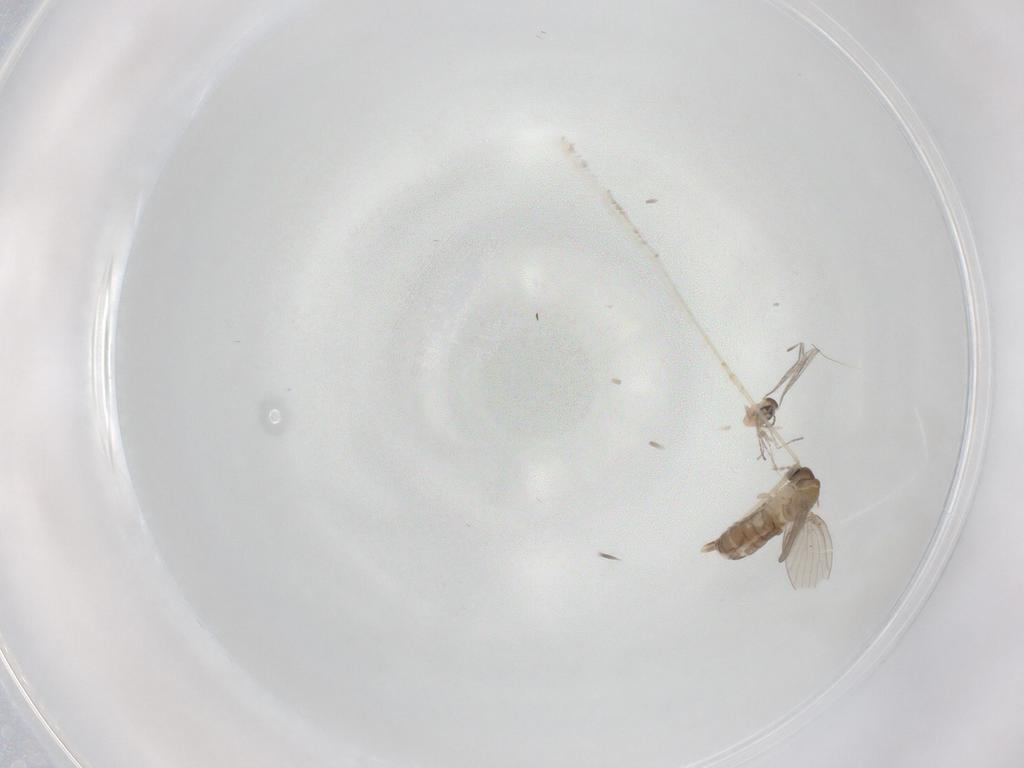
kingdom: Animalia
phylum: Arthropoda
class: Insecta
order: Diptera
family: Cecidomyiidae
